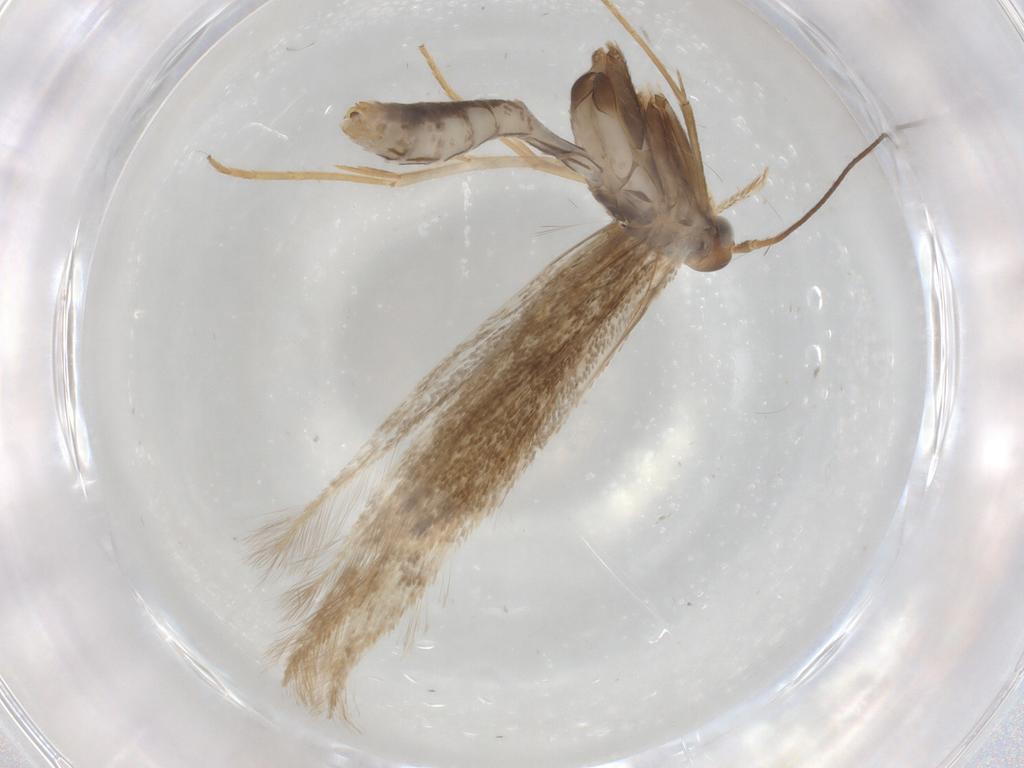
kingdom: Animalia
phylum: Arthropoda
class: Insecta
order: Lepidoptera
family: Coleophoridae
